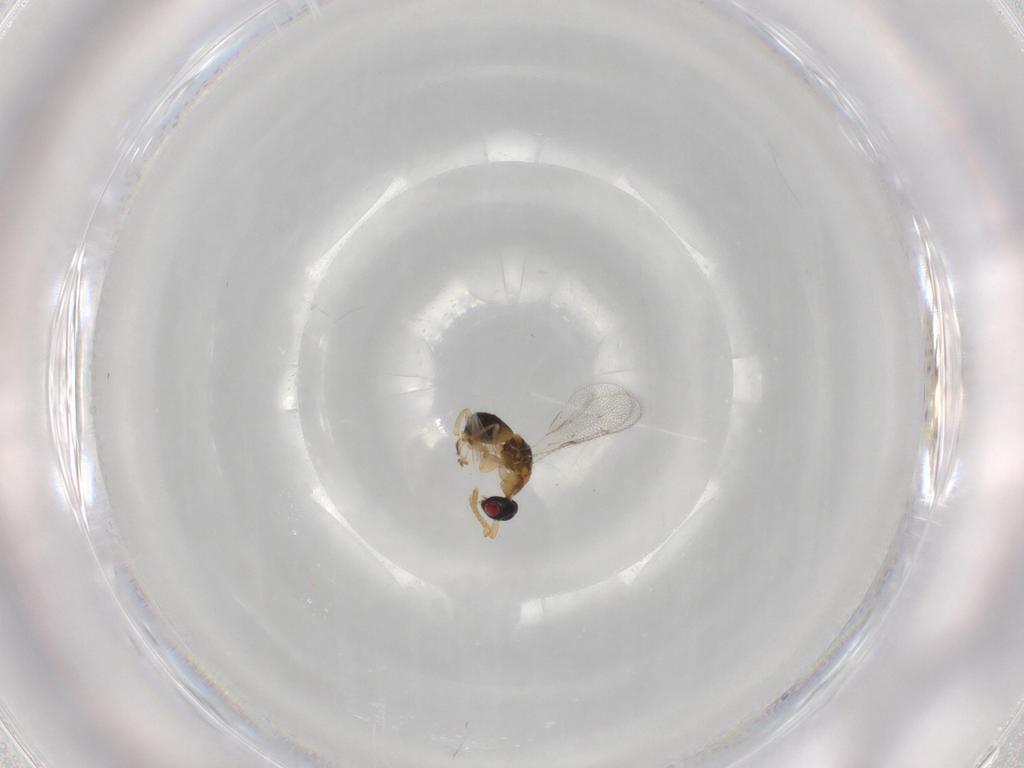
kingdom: Animalia
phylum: Arthropoda
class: Insecta
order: Hymenoptera
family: Torymidae
